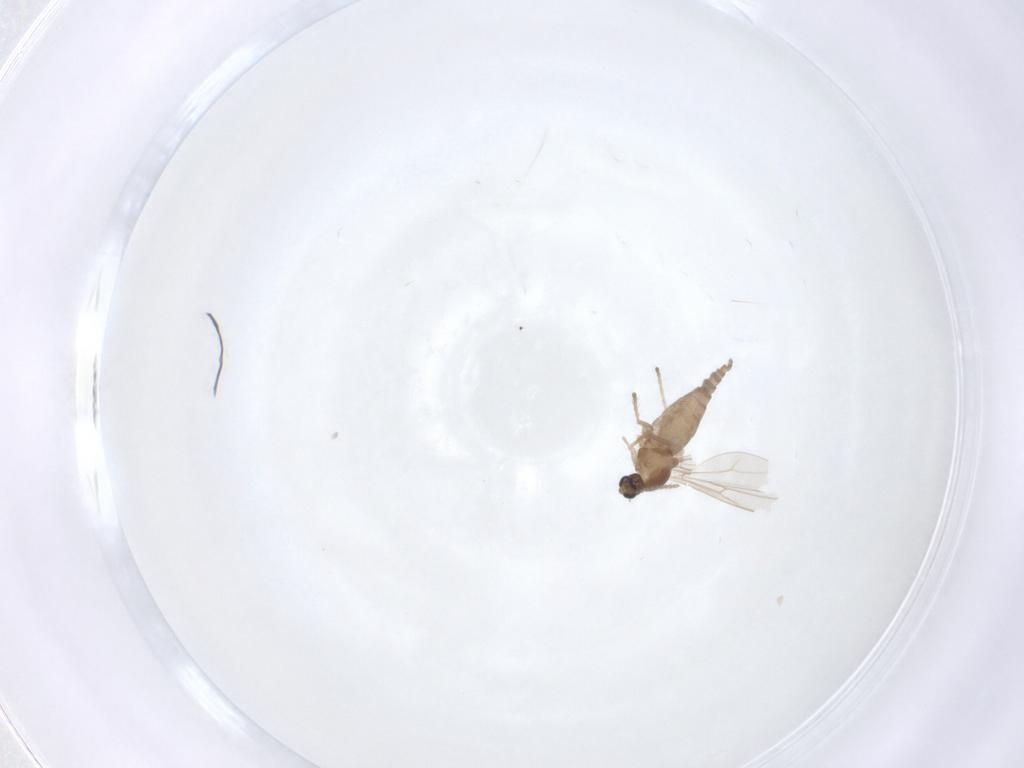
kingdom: Animalia
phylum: Arthropoda
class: Insecta
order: Diptera
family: Cecidomyiidae
